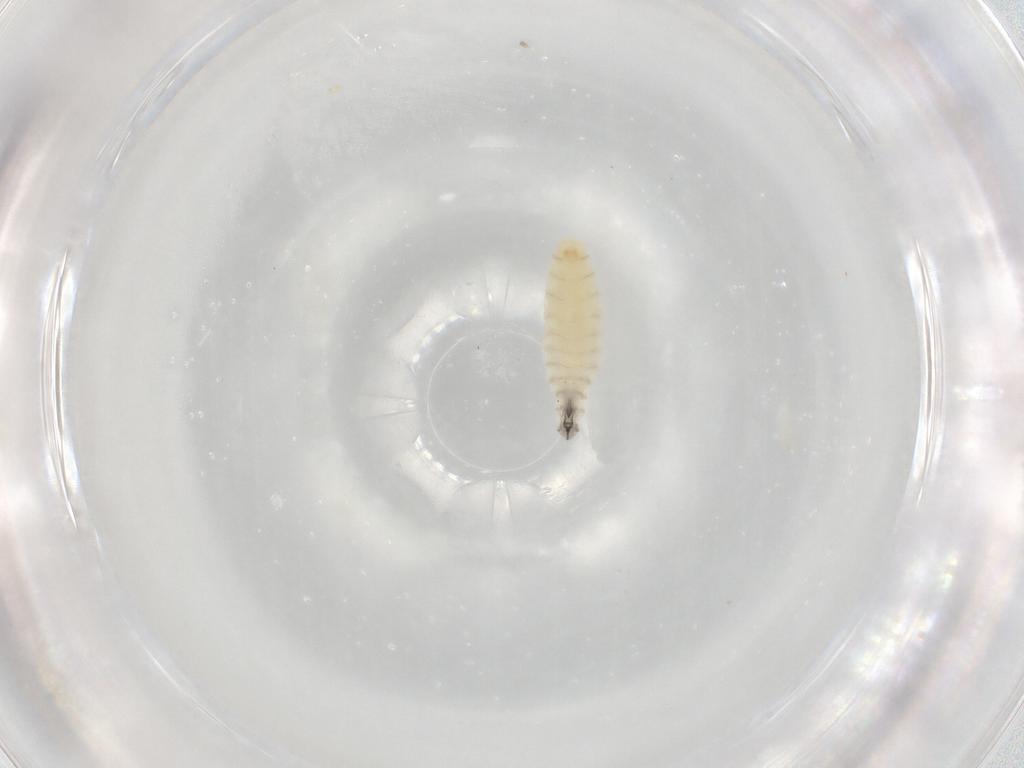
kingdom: Animalia
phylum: Arthropoda
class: Insecta
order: Diptera
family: Sarcophagidae
